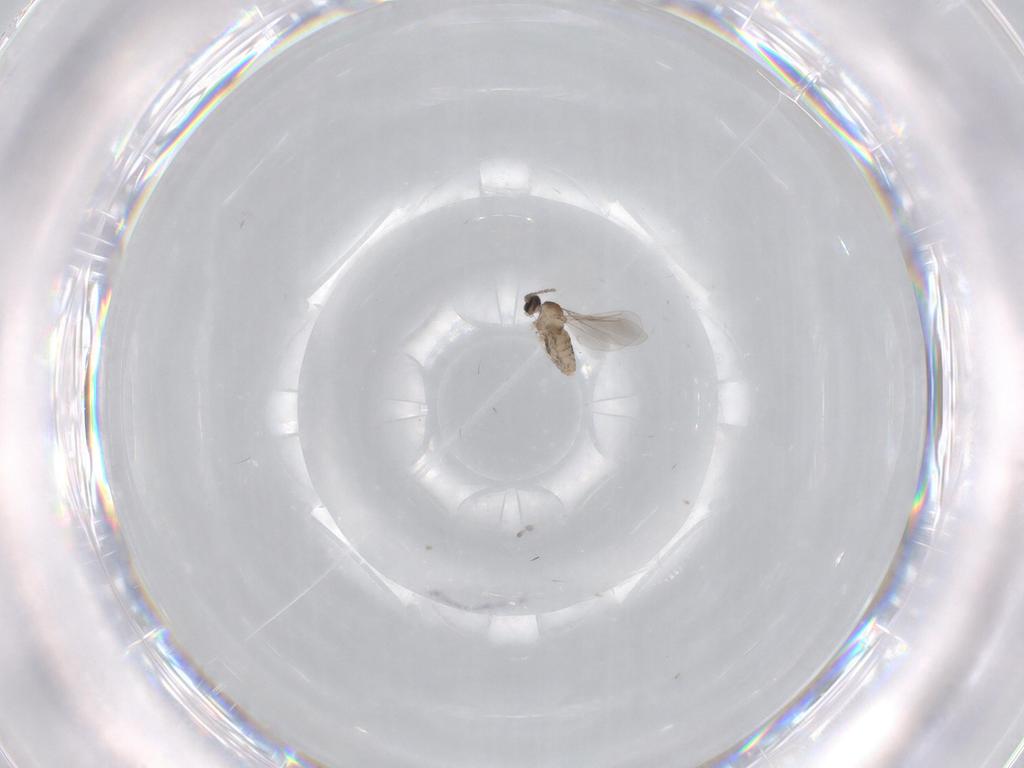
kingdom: Animalia
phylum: Arthropoda
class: Insecta
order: Diptera
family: Cecidomyiidae
